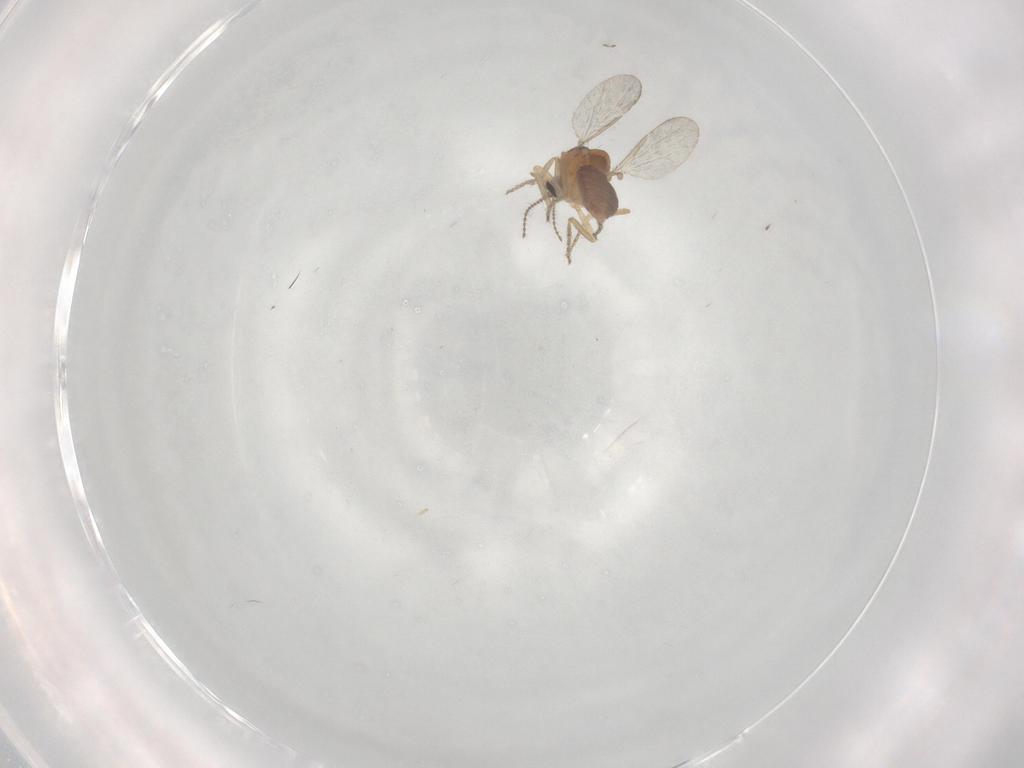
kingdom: Animalia
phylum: Arthropoda
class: Insecta
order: Diptera
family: Ceratopogonidae
